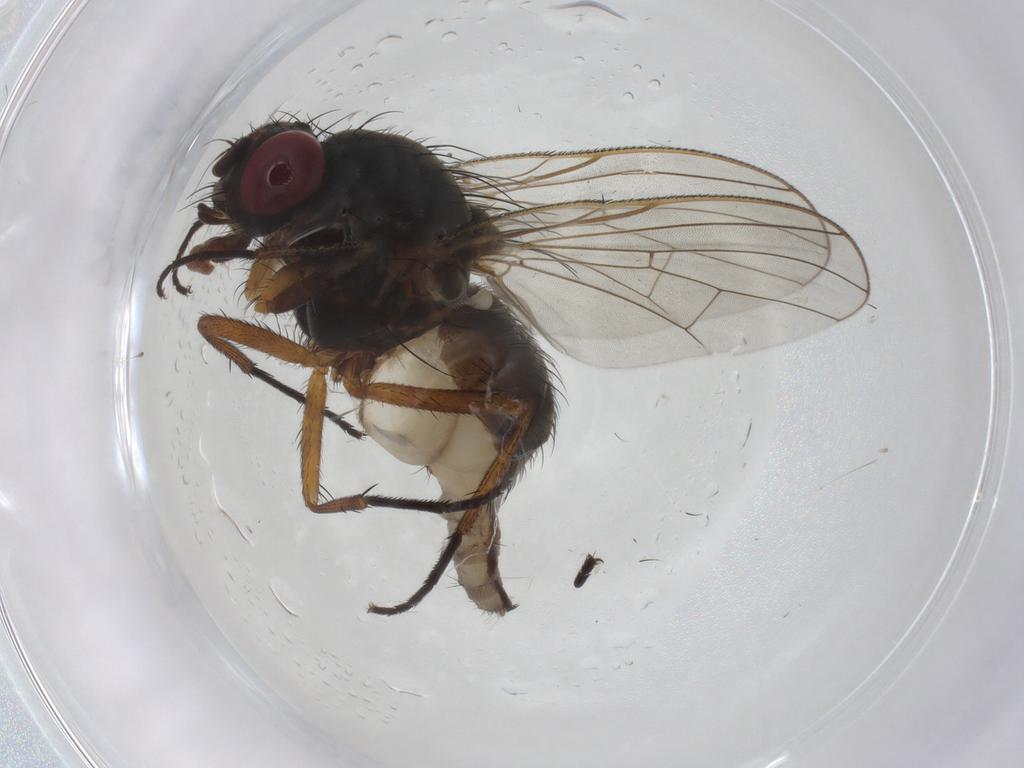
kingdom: Animalia
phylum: Arthropoda
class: Insecta
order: Diptera
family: Anthomyiidae
